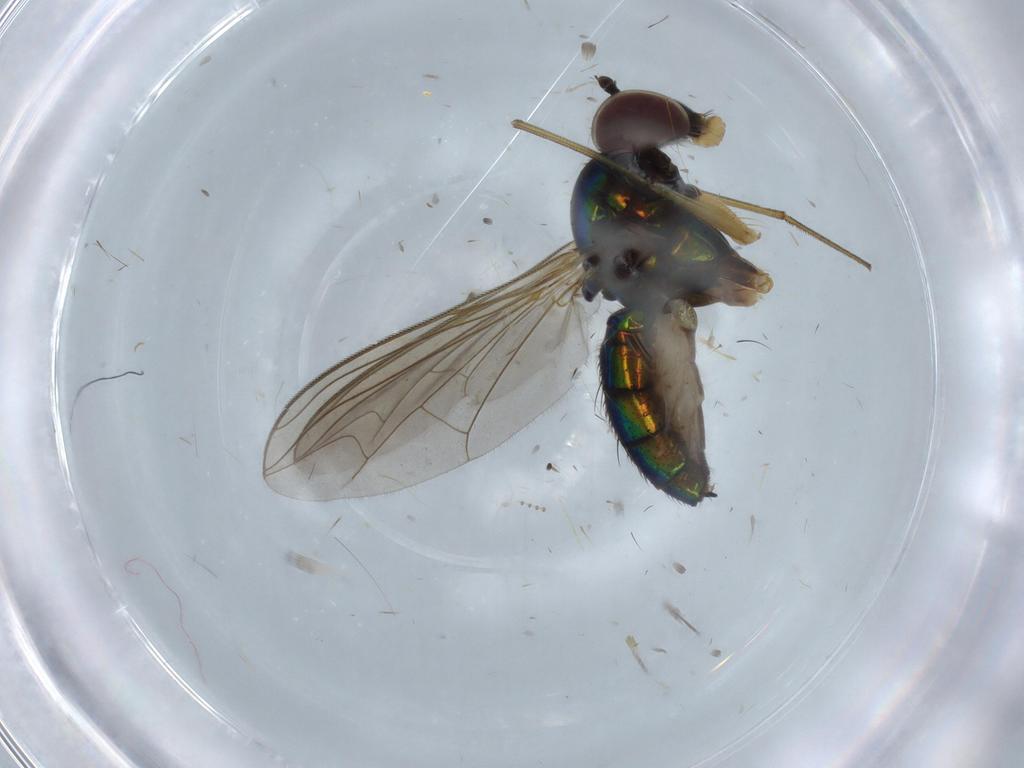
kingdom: Animalia
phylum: Arthropoda
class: Insecta
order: Diptera
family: Dolichopodidae
